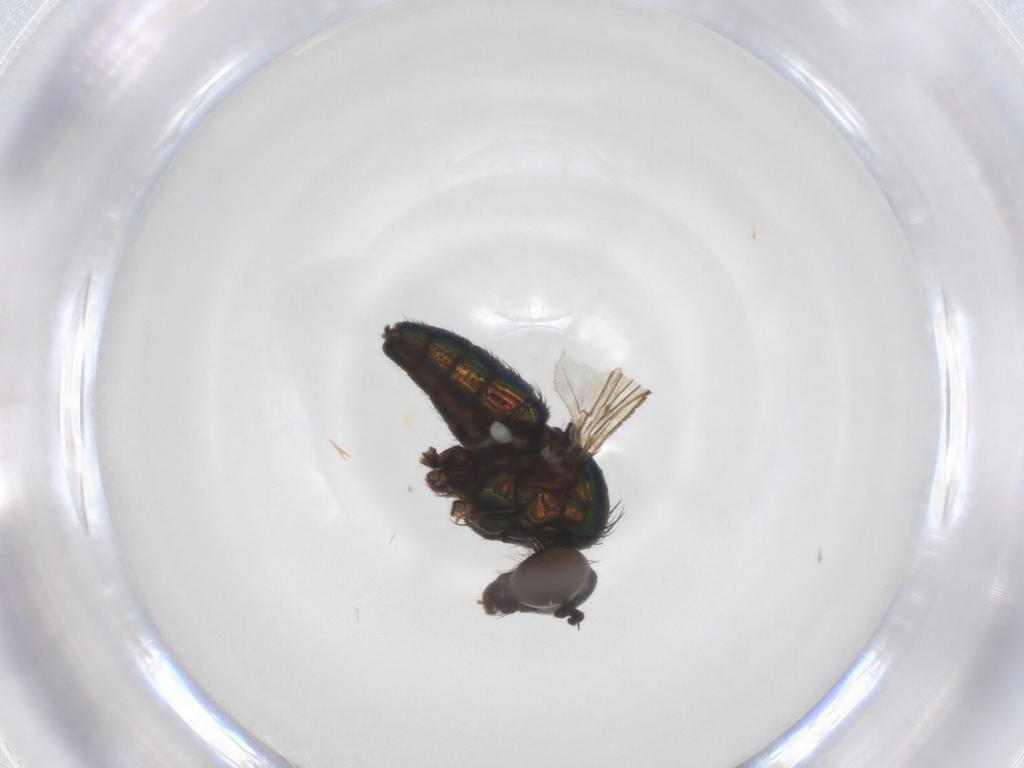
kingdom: Animalia
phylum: Arthropoda
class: Insecta
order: Diptera
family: Dolichopodidae
